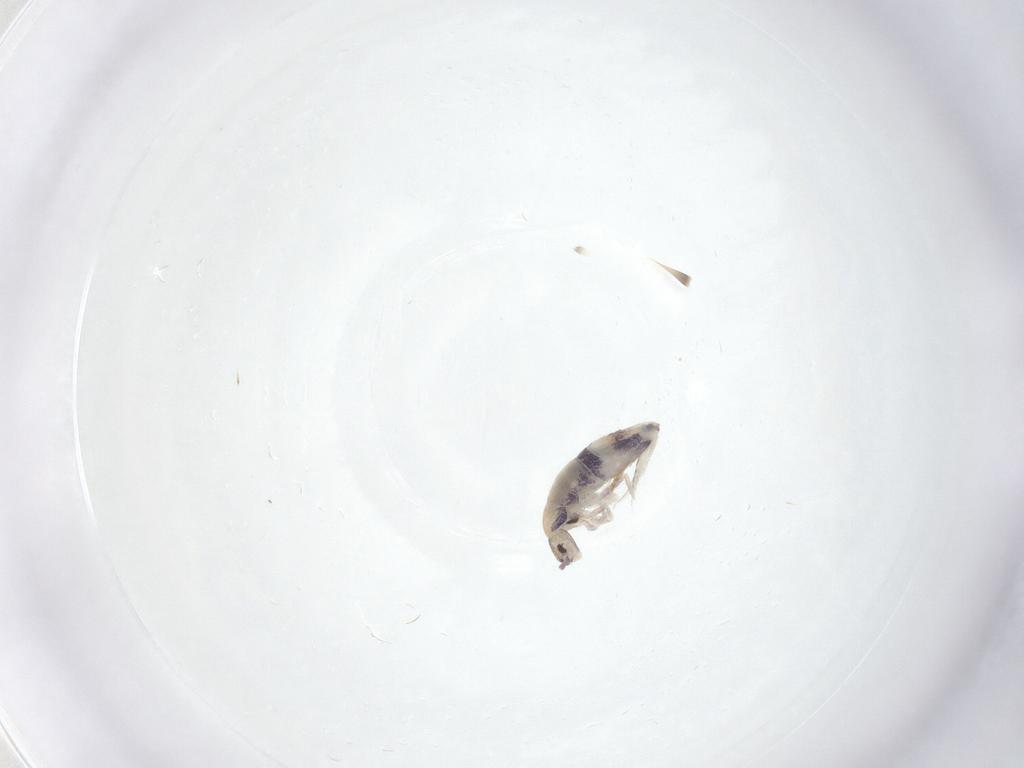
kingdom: Animalia
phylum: Arthropoda
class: Collembola
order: Entomobryomorpha
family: Entomobryidae
